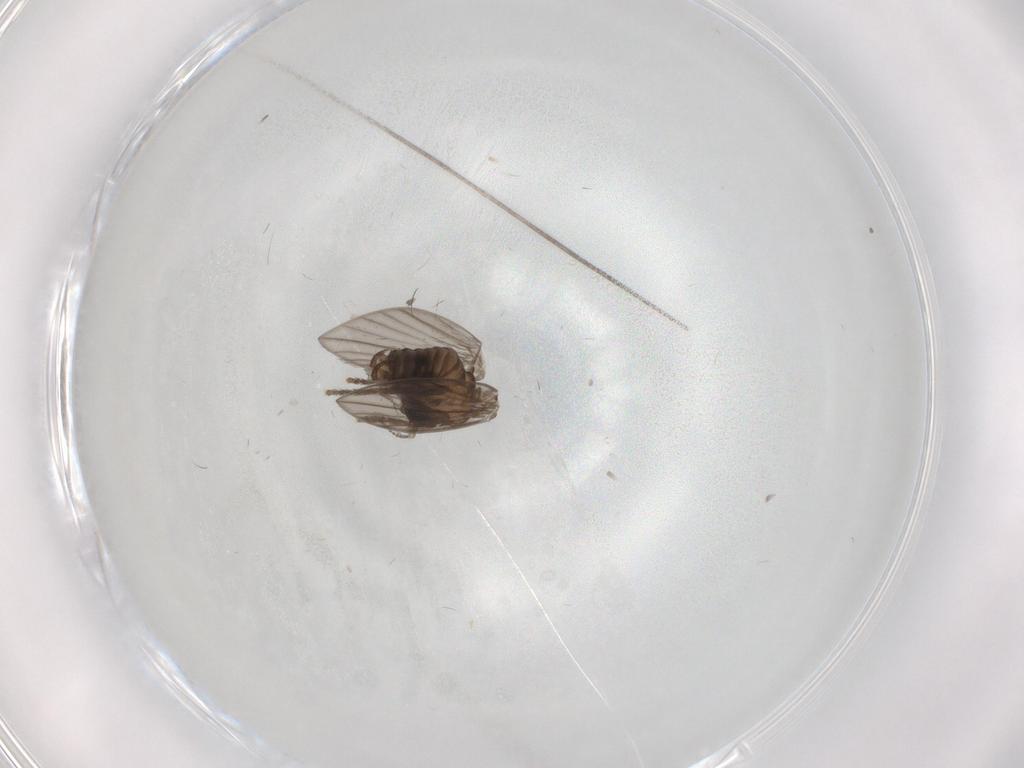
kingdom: Animalia
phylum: Arthropoda
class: Insecta
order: Diptera
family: Psychodidae
